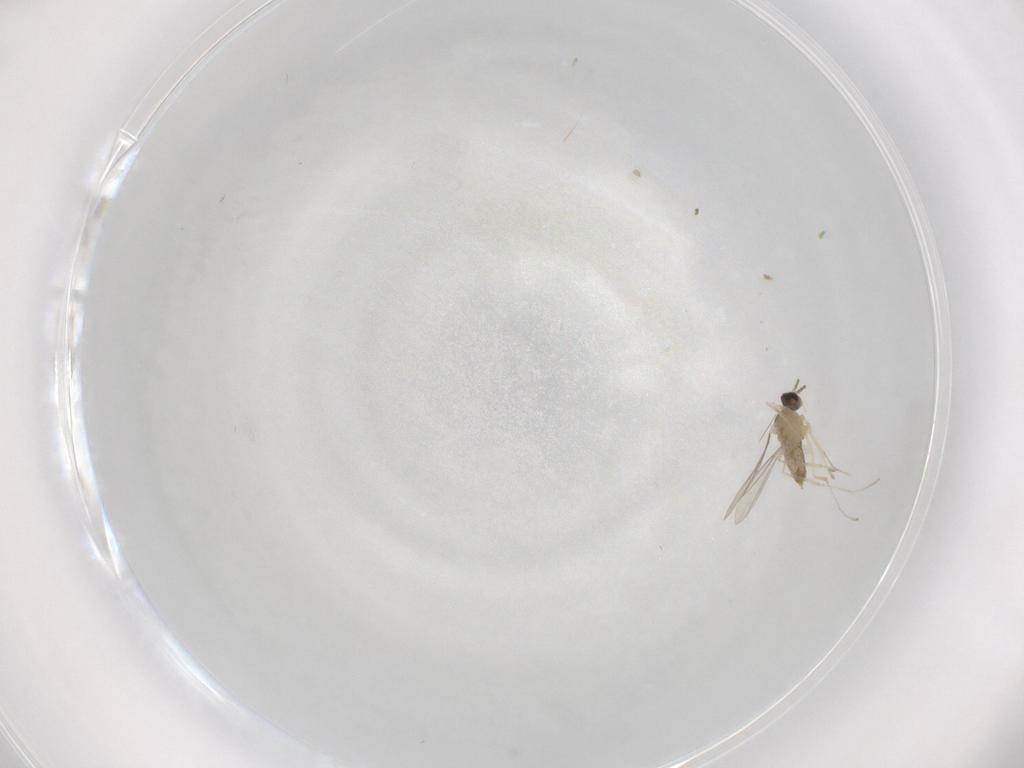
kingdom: Animalia
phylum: Arthropoda
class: Insecta
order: Diptera
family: Cecidomyiidae
